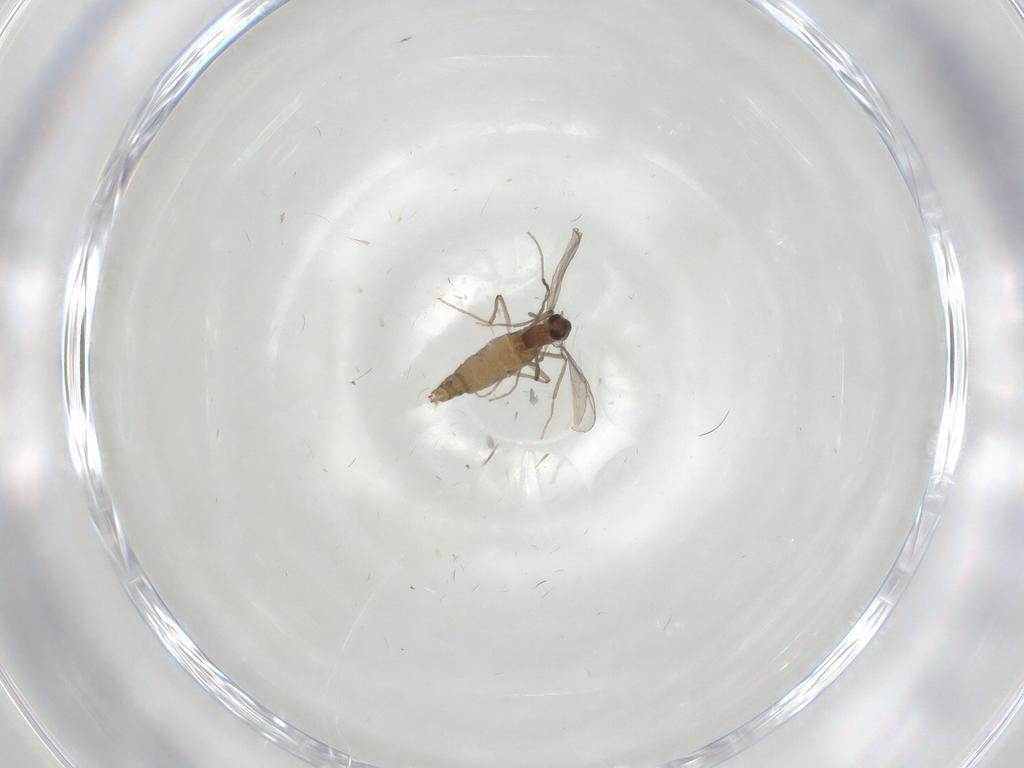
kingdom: Animalia
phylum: Arthropoda
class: Insecta
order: Diptera
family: Chironomidae
